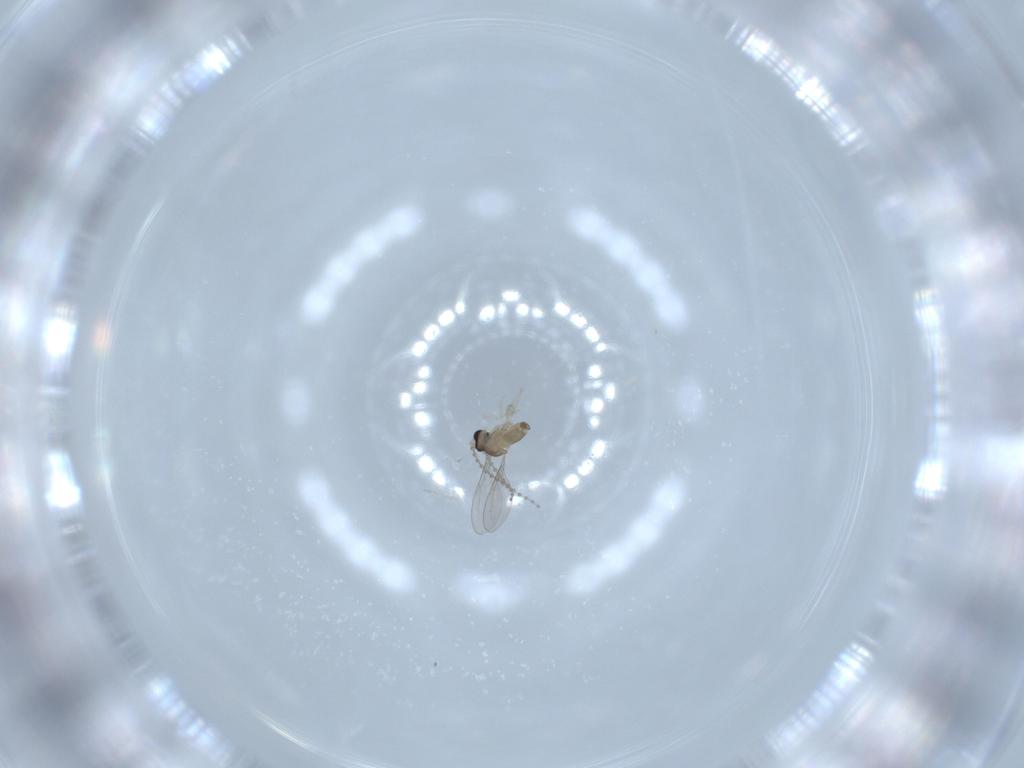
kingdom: Animalia
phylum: Arthropoda
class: Insecta
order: Diptera
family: Cecidomyiidae
